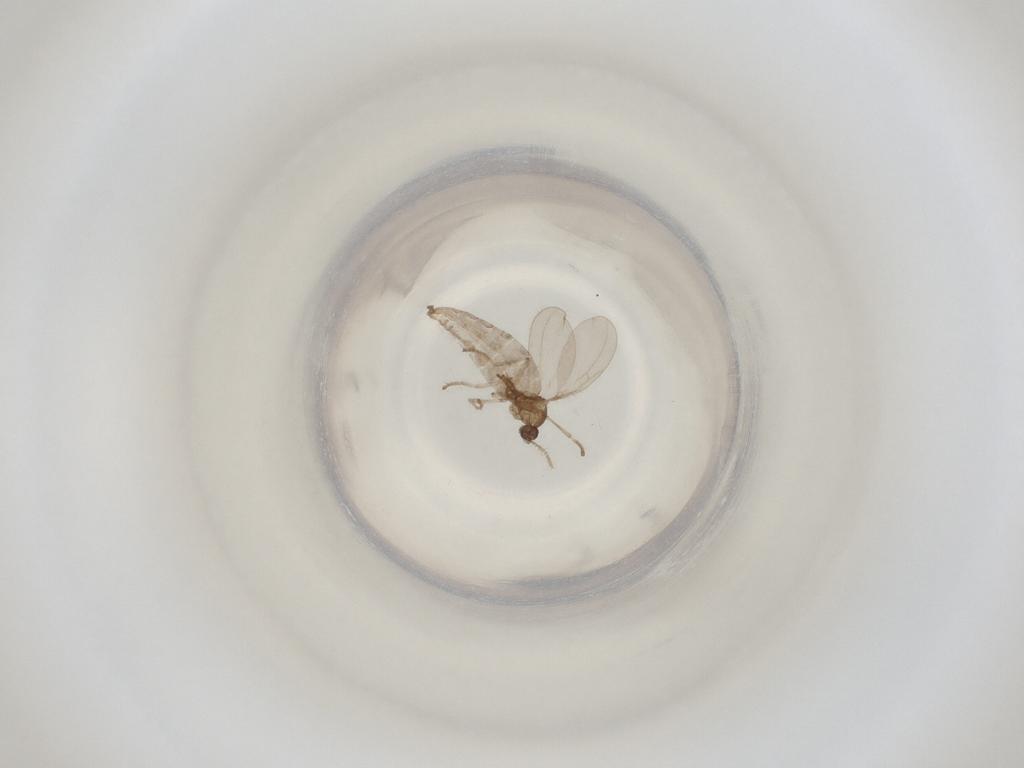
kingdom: Animalia
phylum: Arthropoda
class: Insecta
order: Diptera
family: Cecidomyiidae
